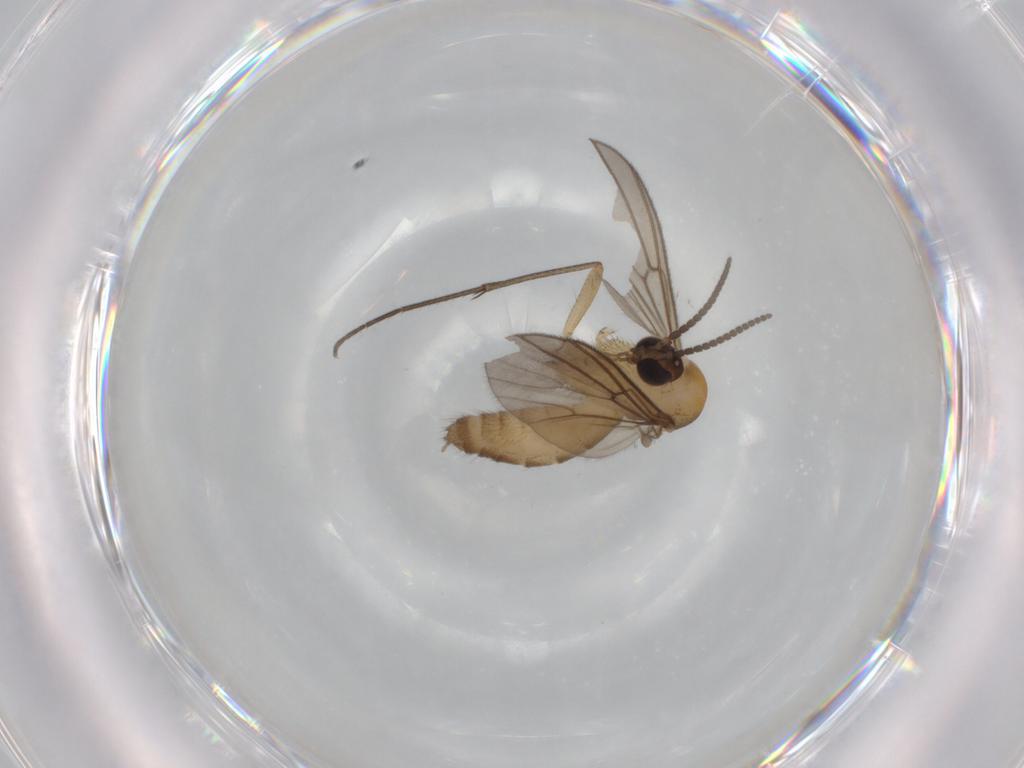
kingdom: Animalia
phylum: Arthropoda
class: Insecta
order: Diptera
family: Mycetophilidae
